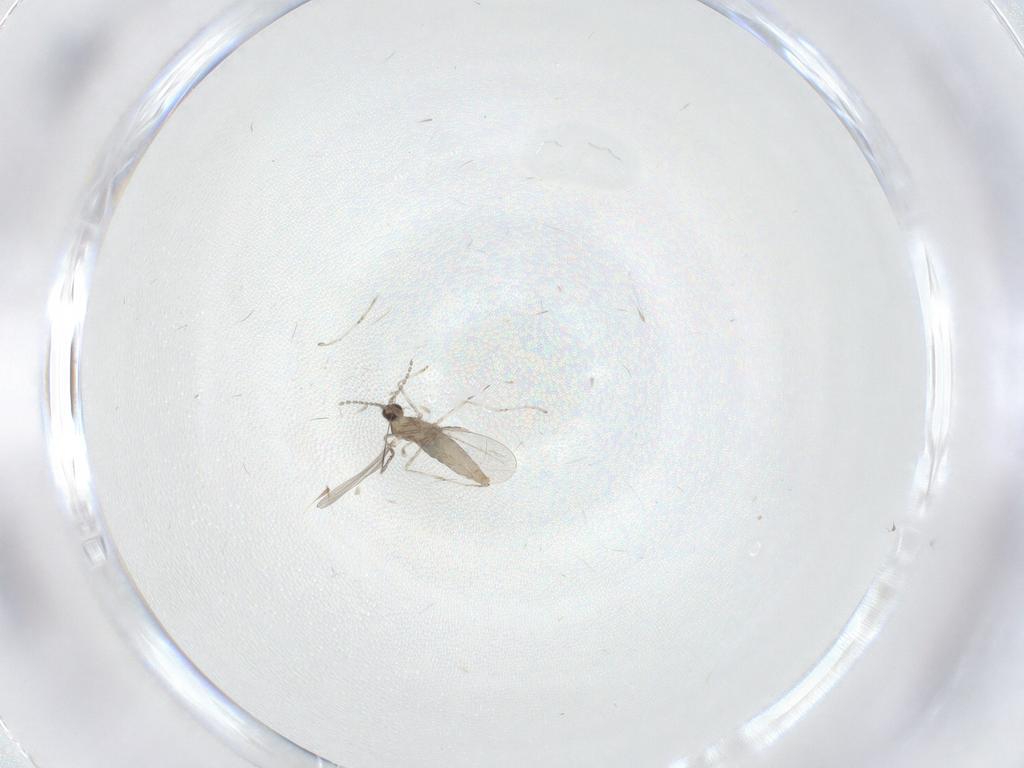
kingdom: Animalia
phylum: Arthropoda
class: Insecta
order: Diptera
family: Cecidomyiidae
